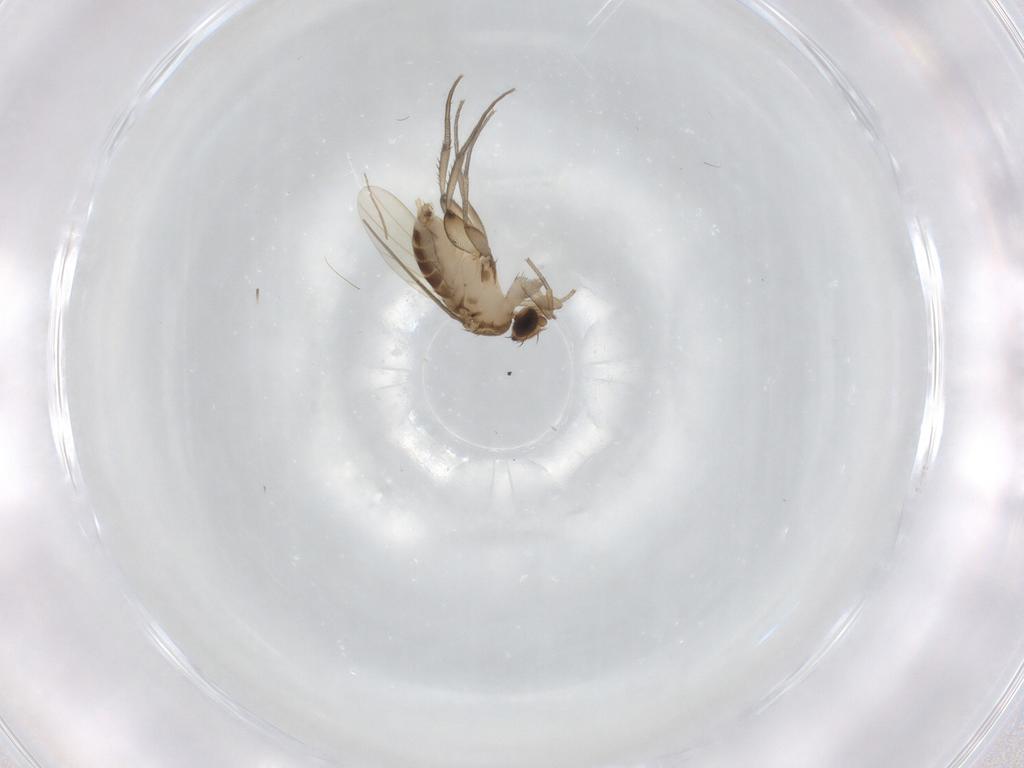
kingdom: Animalia
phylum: Arthropoda
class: Insecta
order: Diptera
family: Phoridae
